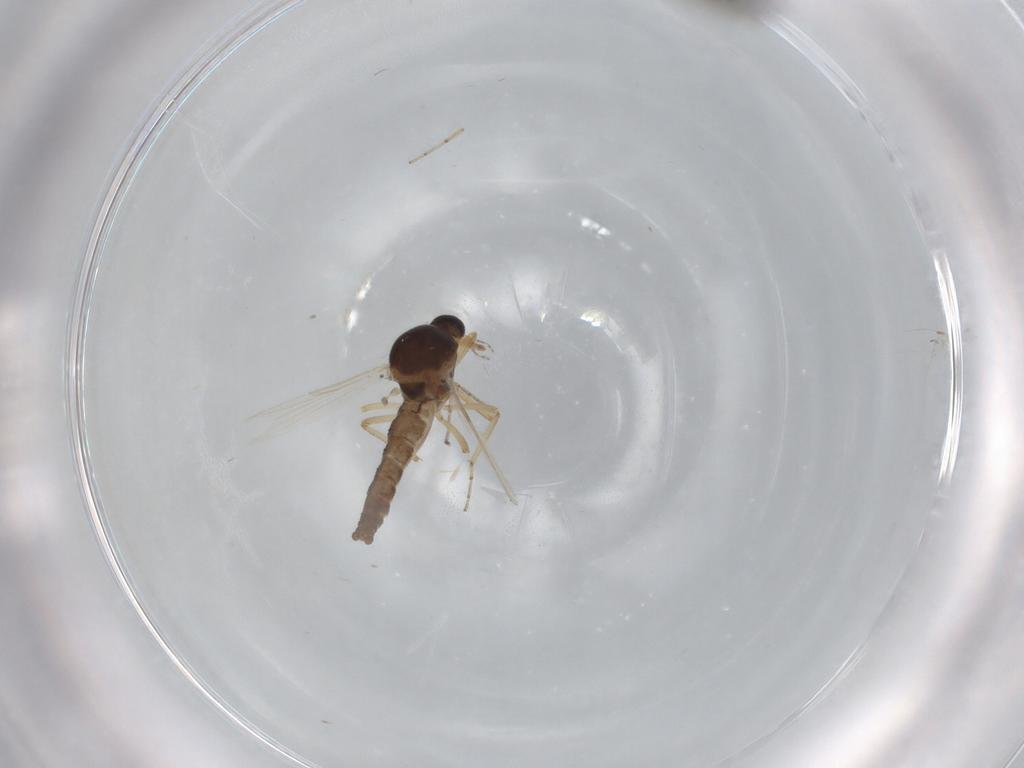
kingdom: Animalia
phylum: Arthropoda
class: Insecta
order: Diptera
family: Anthomyiidae
